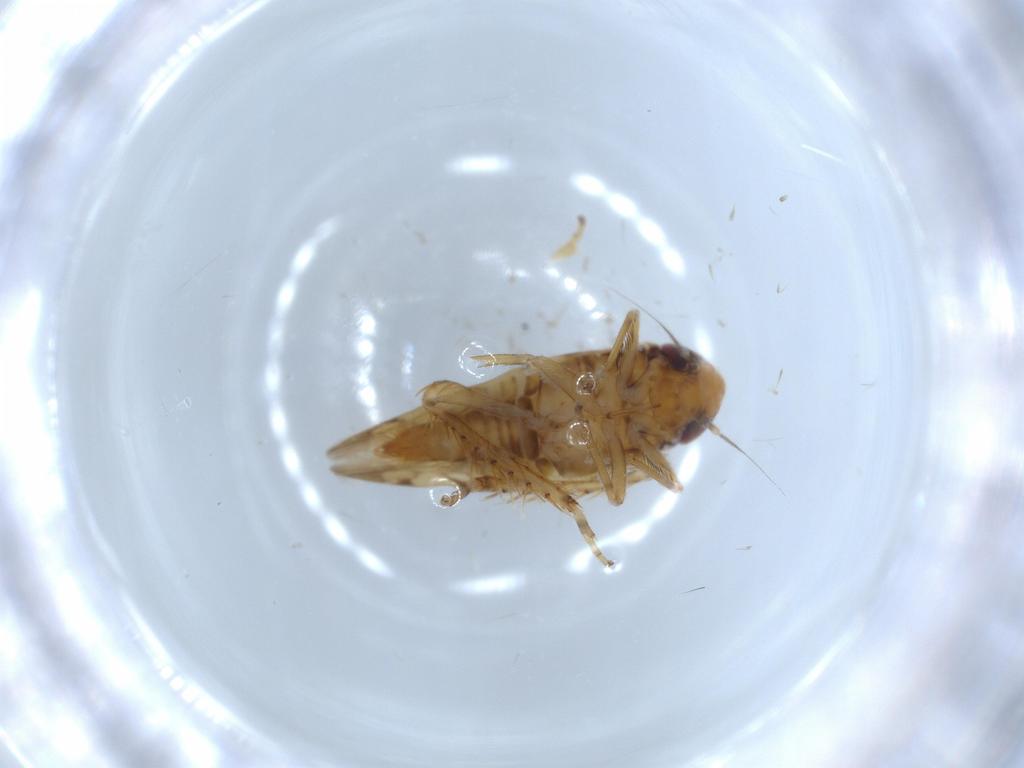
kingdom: Animalia
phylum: Arthropoda
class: Insecta
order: Hemiptera
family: Cicadellidae
